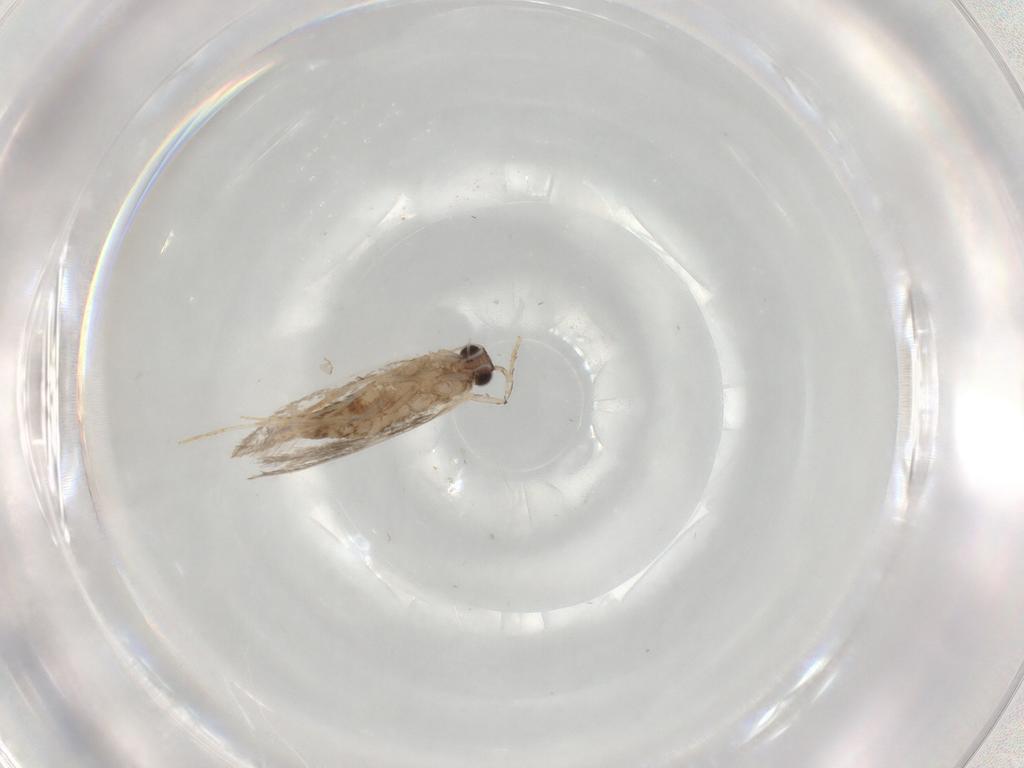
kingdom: Animalia
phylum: Arthropoda
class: Insecta
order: Lepidoptera
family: Tineidae
